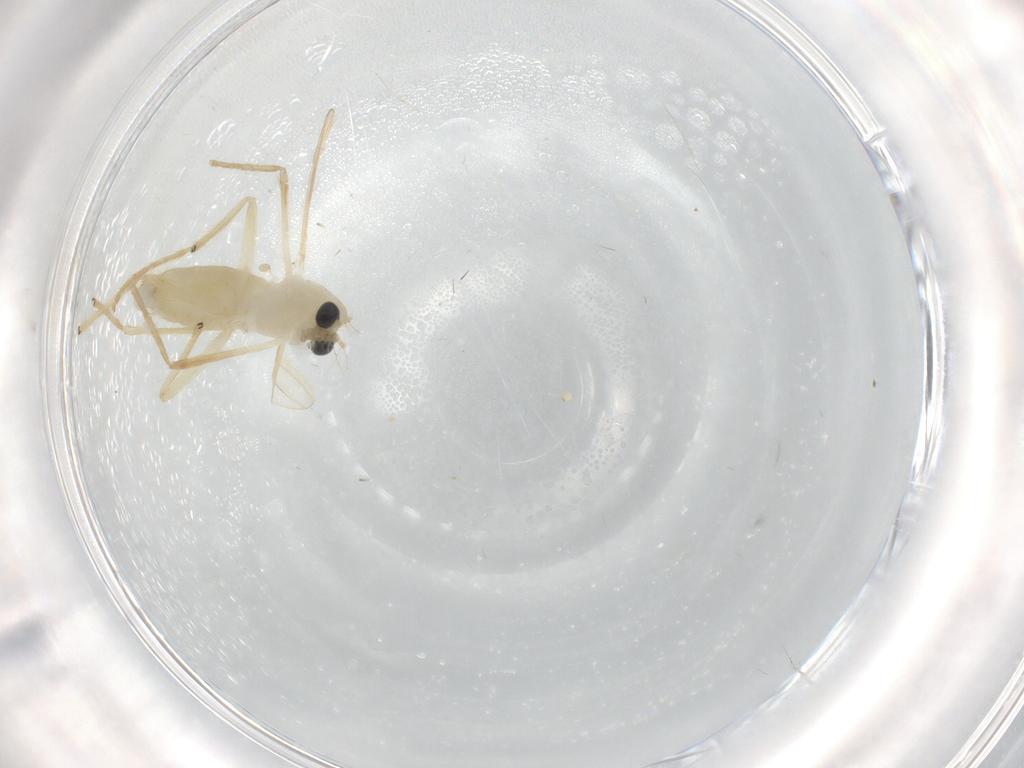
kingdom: Animalia
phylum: Arthropoda
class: Insecta
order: Diptera
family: Chironomidae
